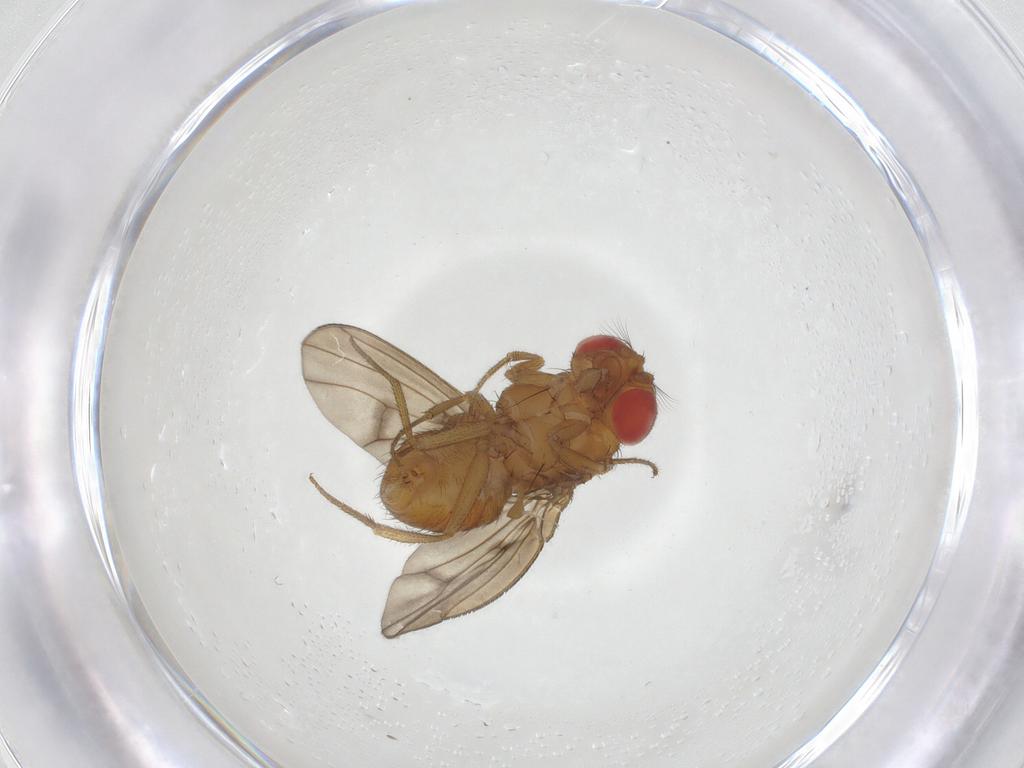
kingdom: Animalia
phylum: Arthropoda
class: Insecta
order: Diptera
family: Drosophilidae
